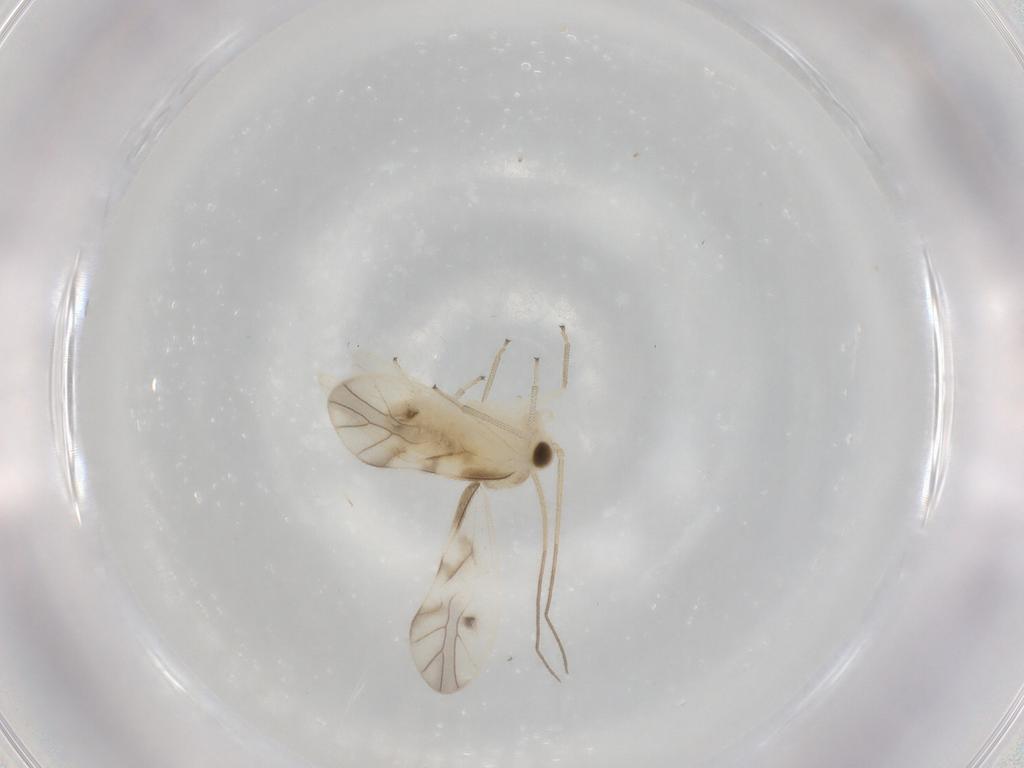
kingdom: Animalia
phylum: Arthropoda
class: Insecta
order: Psocodea
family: Caeciliusidae
